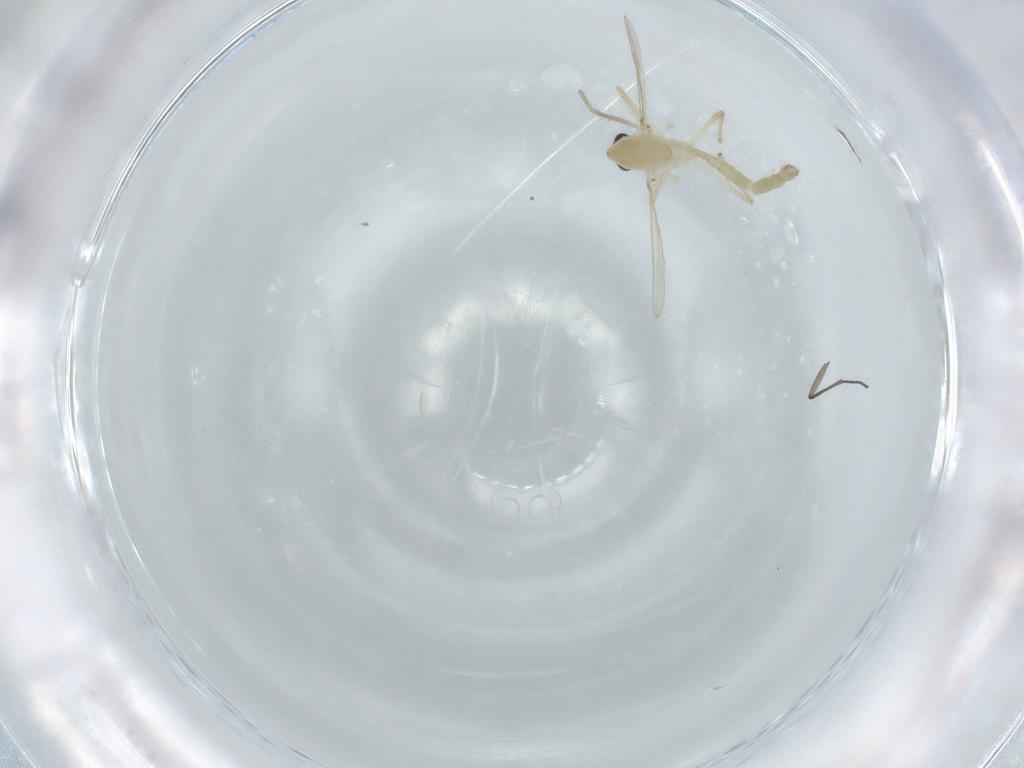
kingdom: Animalia
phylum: Arthropoda
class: Insecta
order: Diptera
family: Chironomidae
